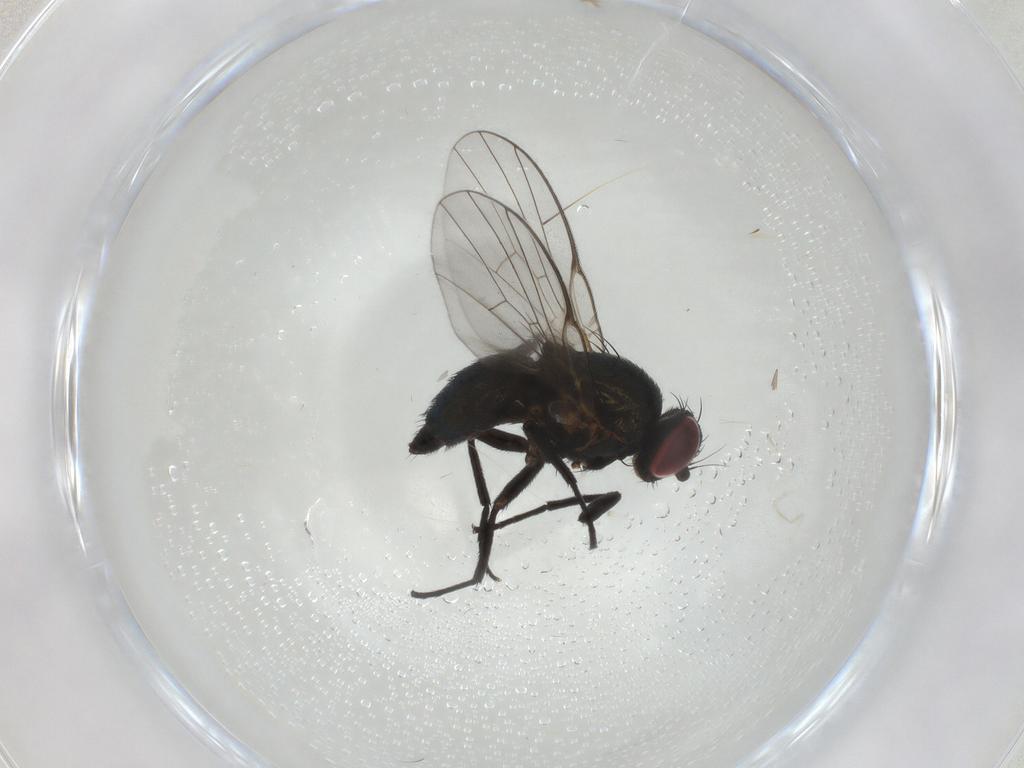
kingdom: Animalia
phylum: Arthropoda
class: Insecta
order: Diptera
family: Agromyzidae
